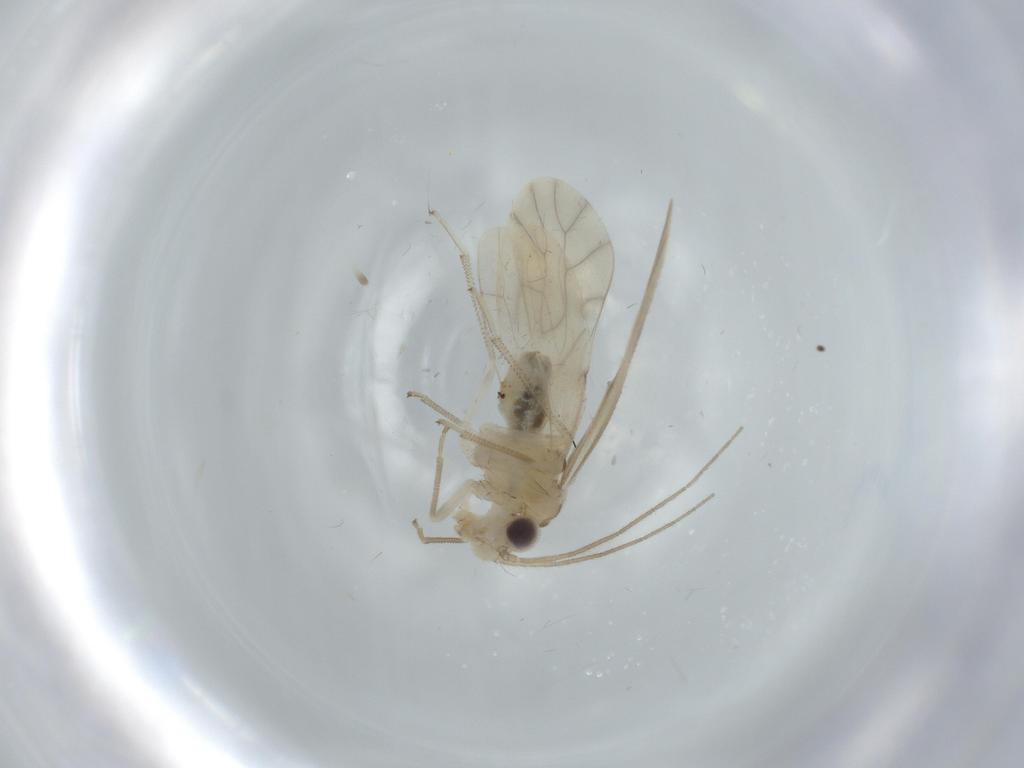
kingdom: Animalia
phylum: Arthropoda
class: Insecta
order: Psocodea
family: Caeciliusidae
